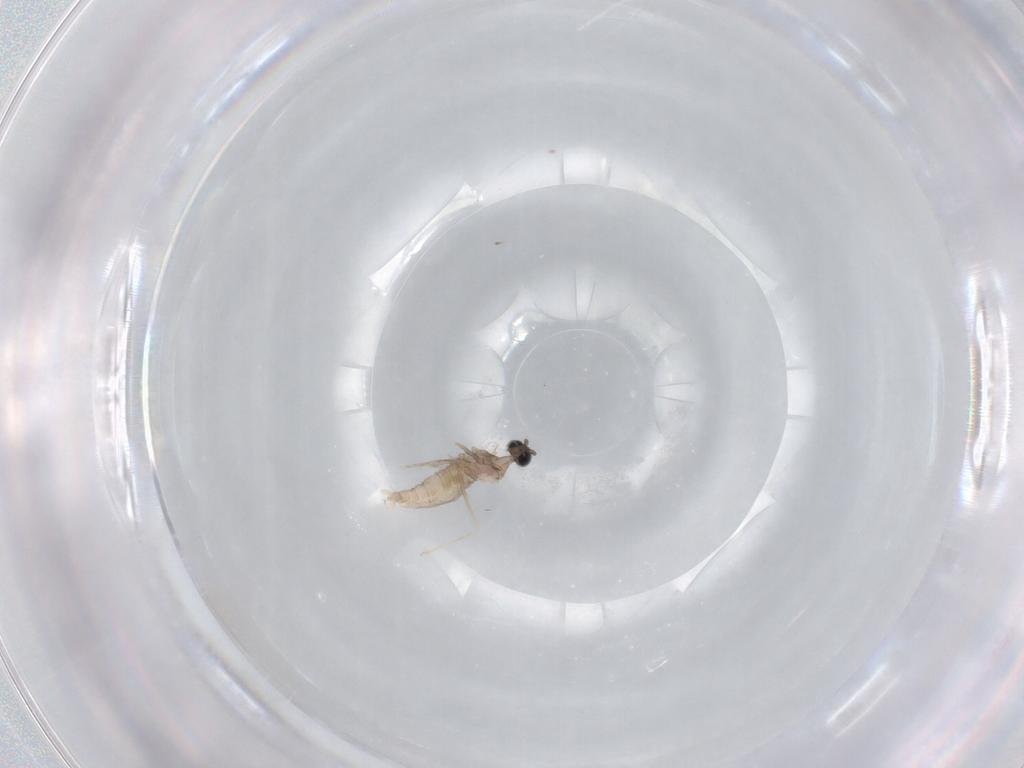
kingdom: Animalia
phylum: Arthropoda
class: Insecta
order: Diptera
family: Cecidomyiidae
